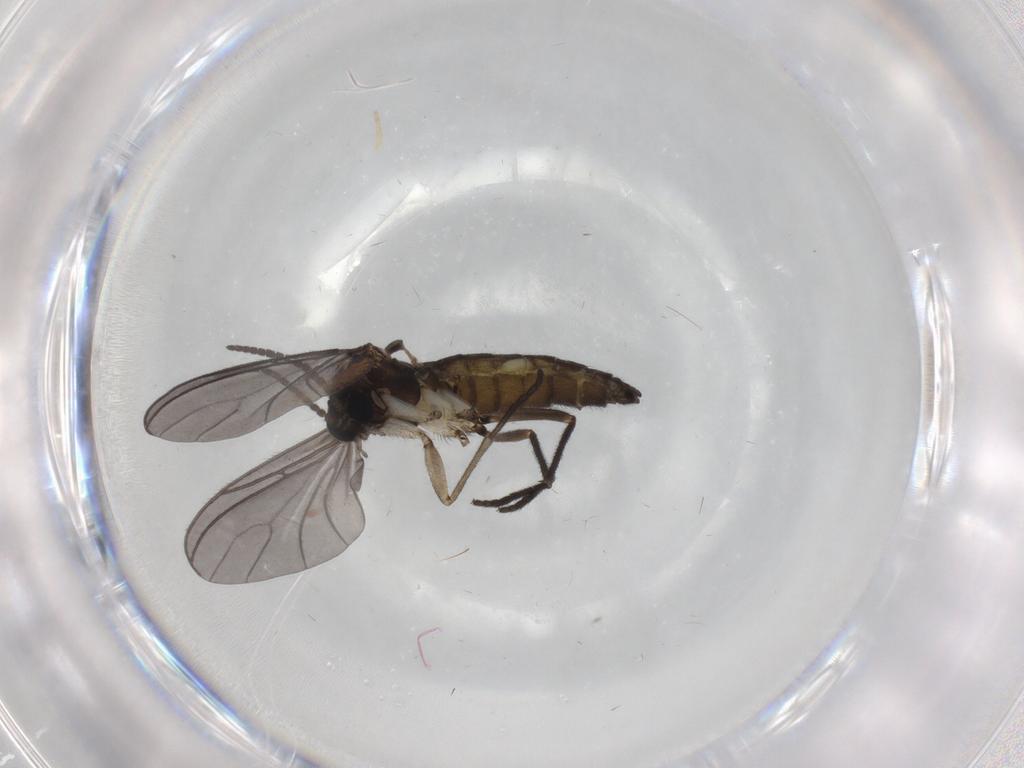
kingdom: Animalia
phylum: Arthropoda
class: Insecta
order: Diptera
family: Sciaridae
